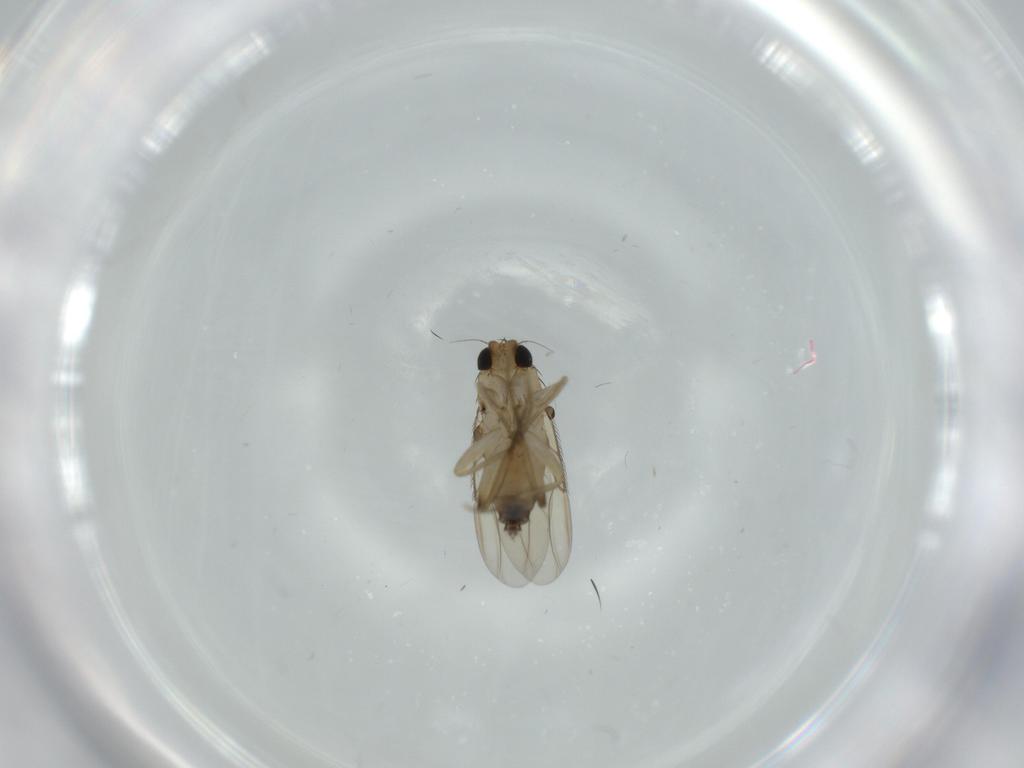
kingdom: Animalia
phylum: Arthropoda
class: Insecta
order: Diptera
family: Phoridae
